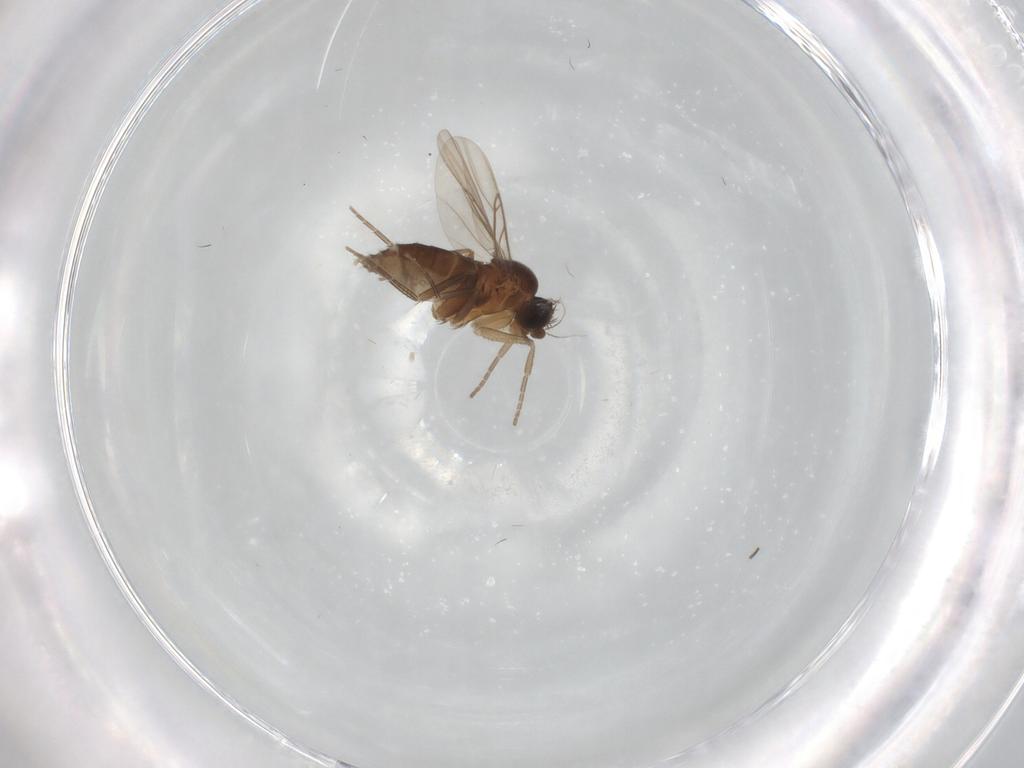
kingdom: Animalia
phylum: Arthropoda
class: Insecta
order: Diptera
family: Phoridae
